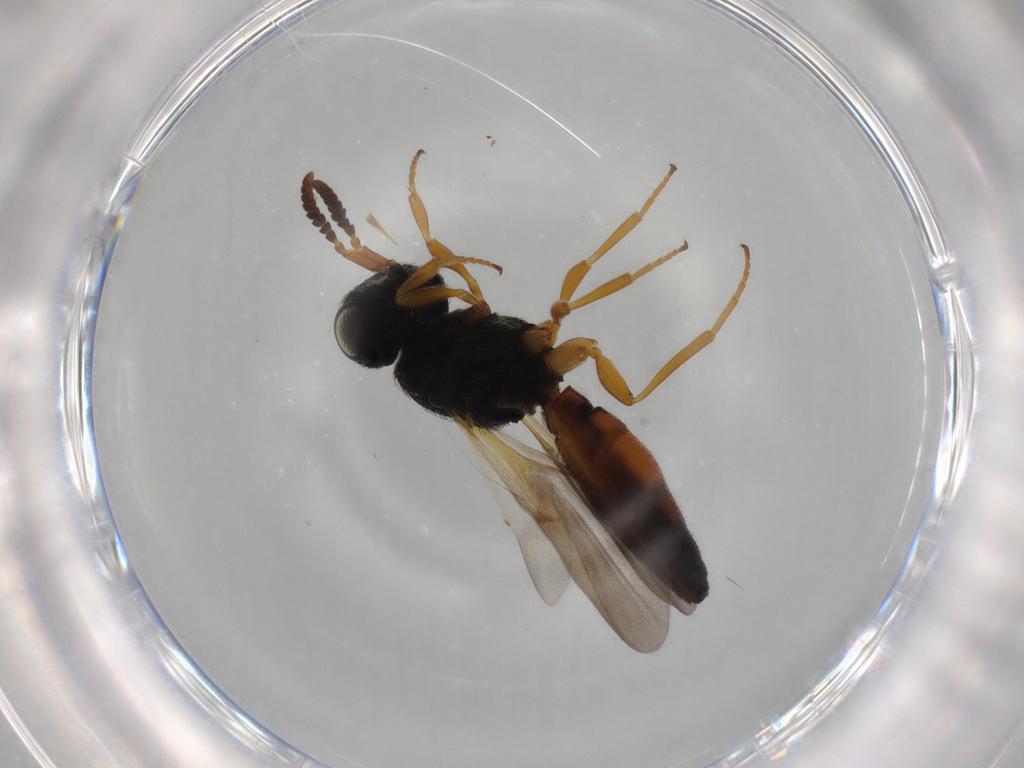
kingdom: Animalia
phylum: Arthropoda
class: Insecta
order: Hymenoptera
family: Scelionidae
